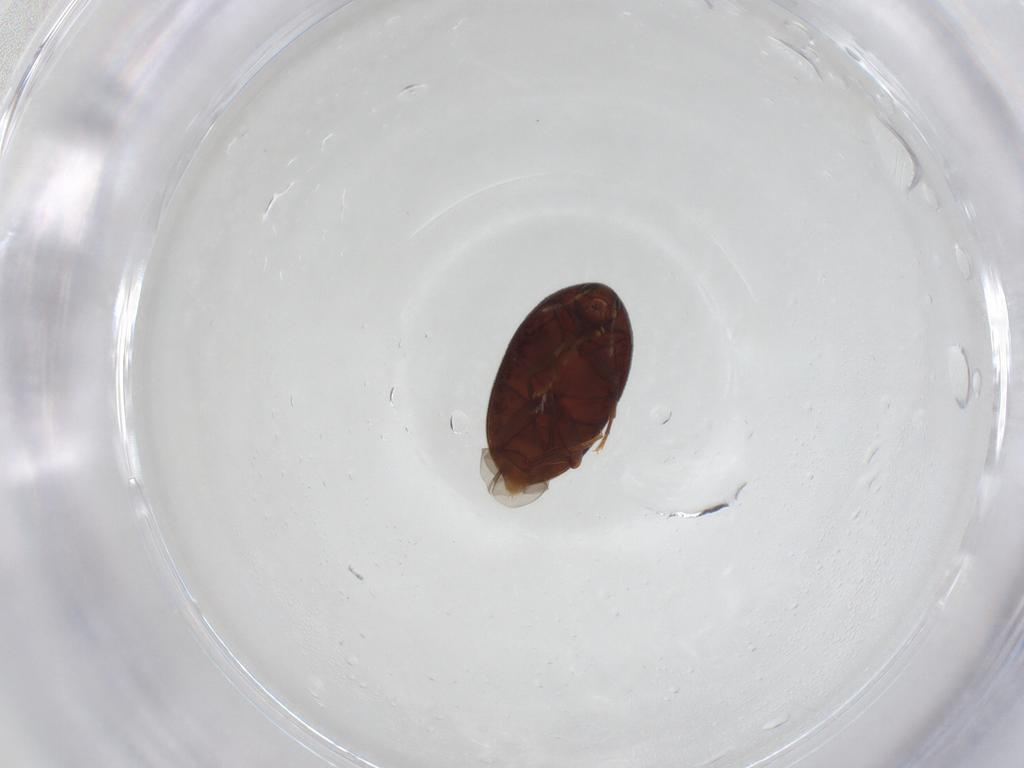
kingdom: Animalia
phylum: Arthropoda
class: Insecta
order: Coleoptera
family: Melandryidae
